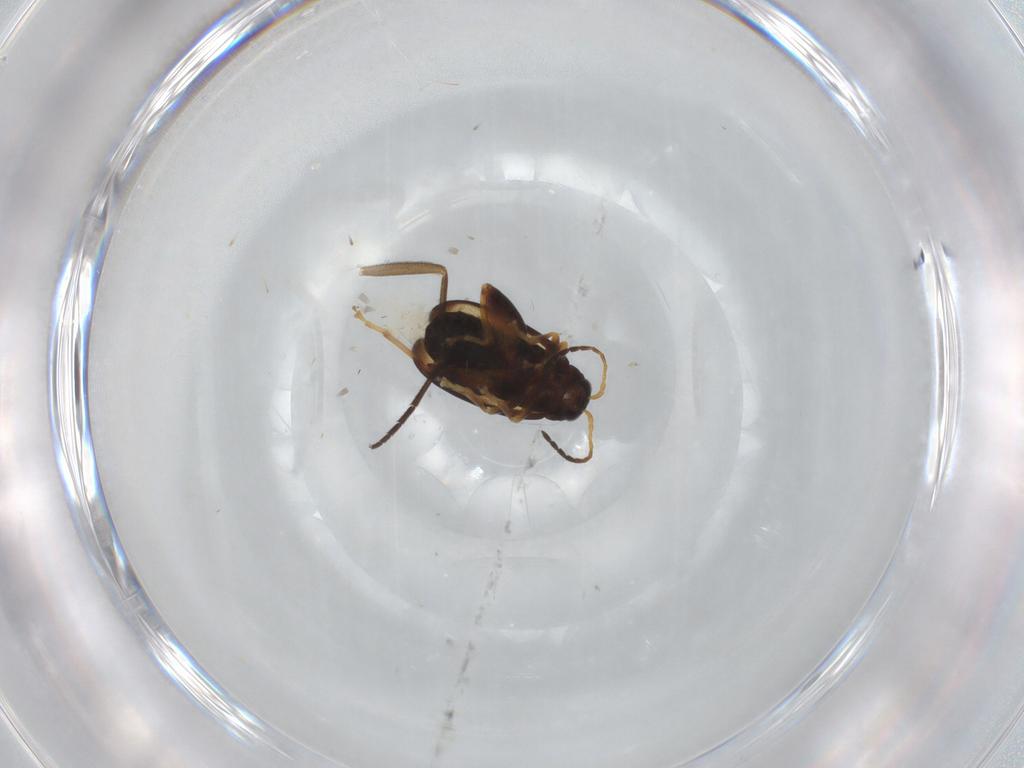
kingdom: Animalia
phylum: Arthropoda
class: Insecta
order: Coleoptera
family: Chrysomelidae
